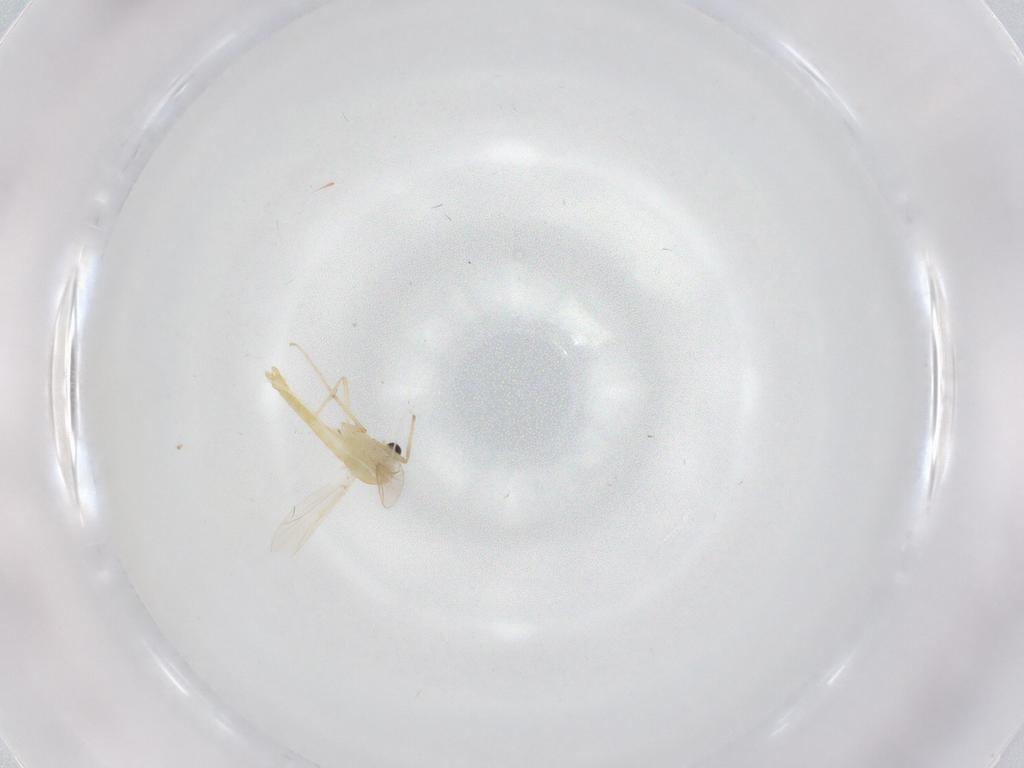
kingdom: Animalia
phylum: Arthropoda
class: Insecta
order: Diptera
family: Chironomidae
